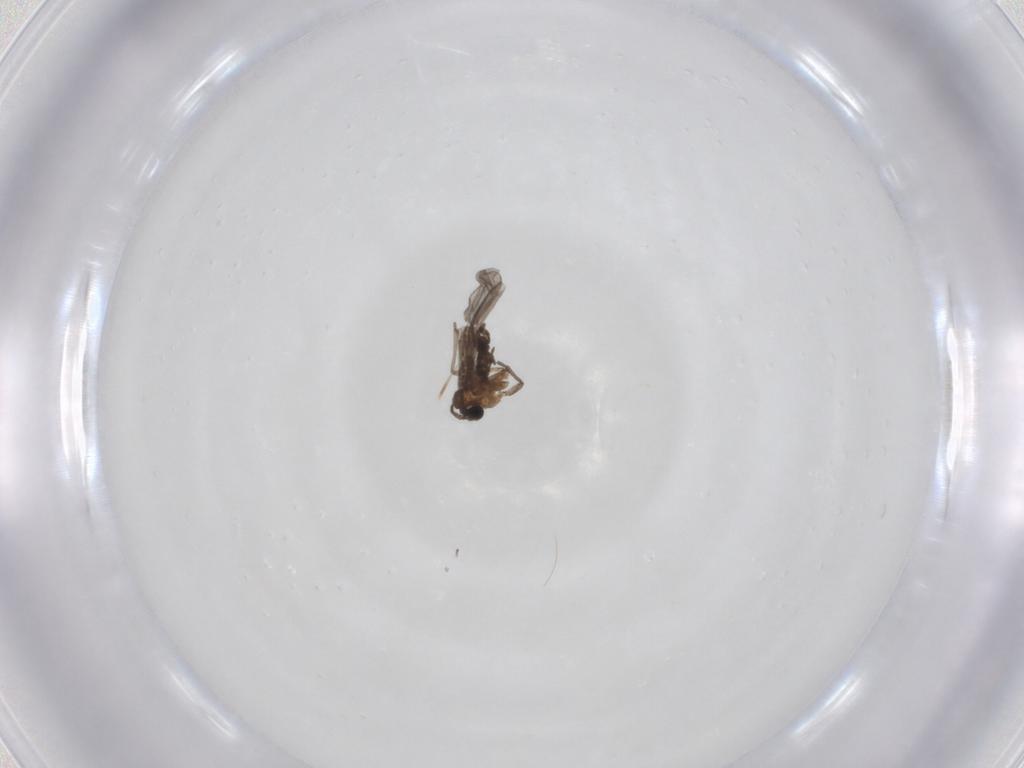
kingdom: Animalia
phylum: Arthropoda
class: Insecta
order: Diptera
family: Sciaridae
